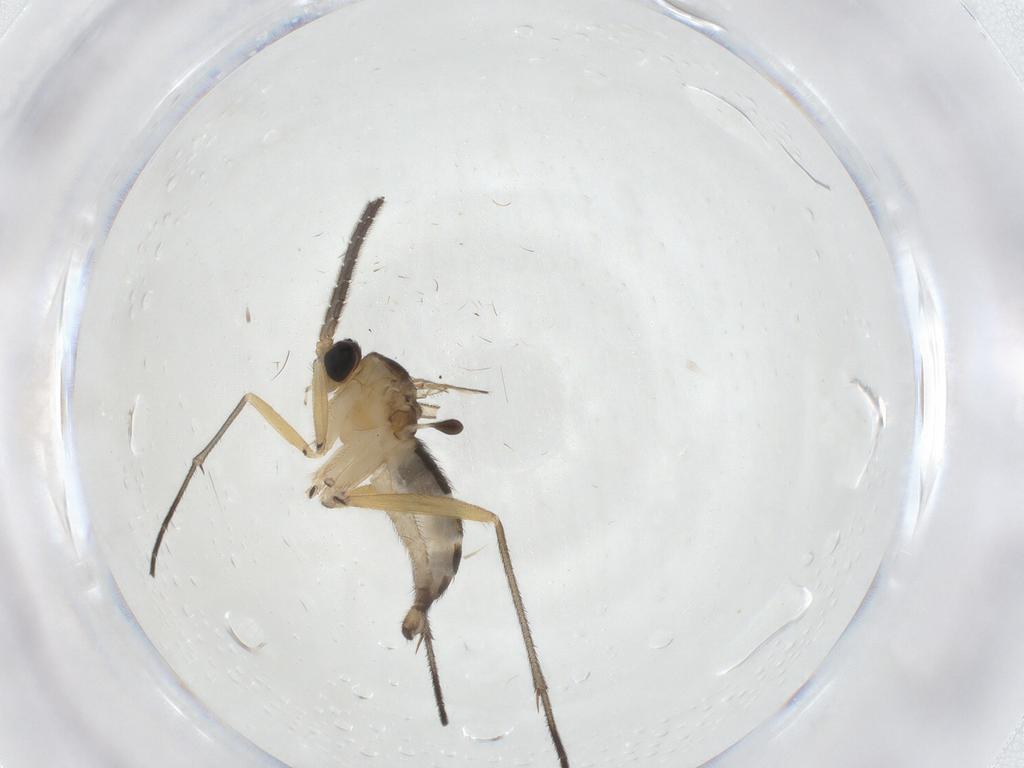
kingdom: Animalia
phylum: Arthropoda
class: Insecta
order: Diptera
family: Sciaridae
